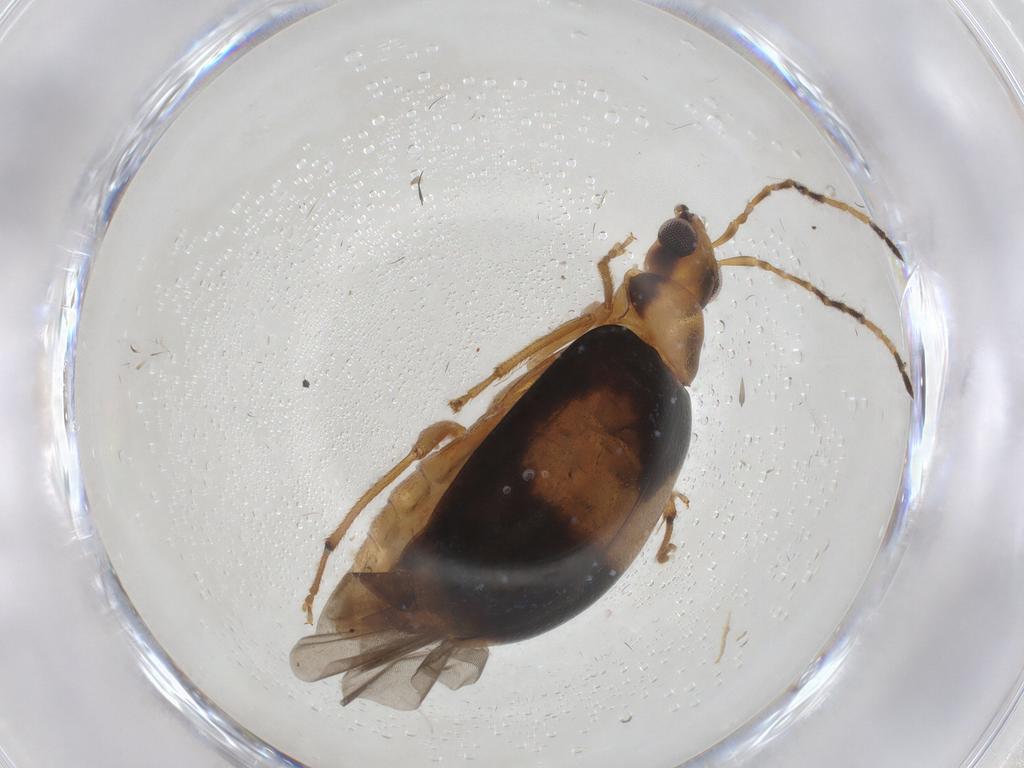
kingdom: Animalia
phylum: Arthropoda
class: Insecta
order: Coleoptera
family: Chrysomelidae
